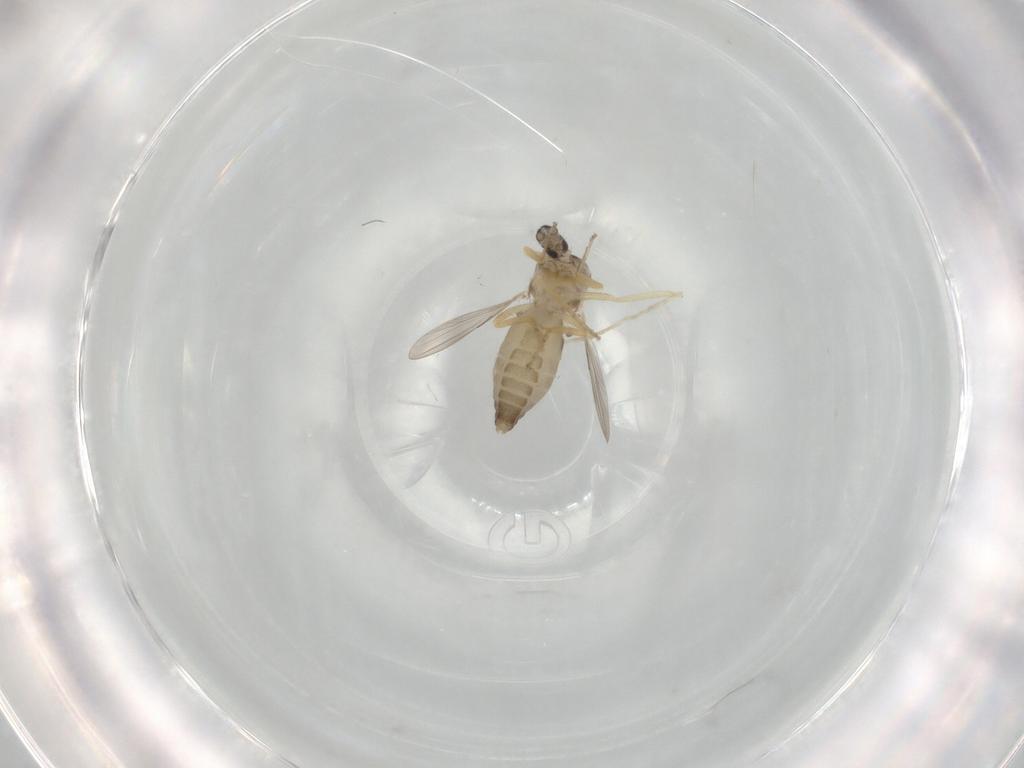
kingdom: Animalia
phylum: Arthropoda
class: Insecta
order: Diptera
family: Ceratopogonidae
